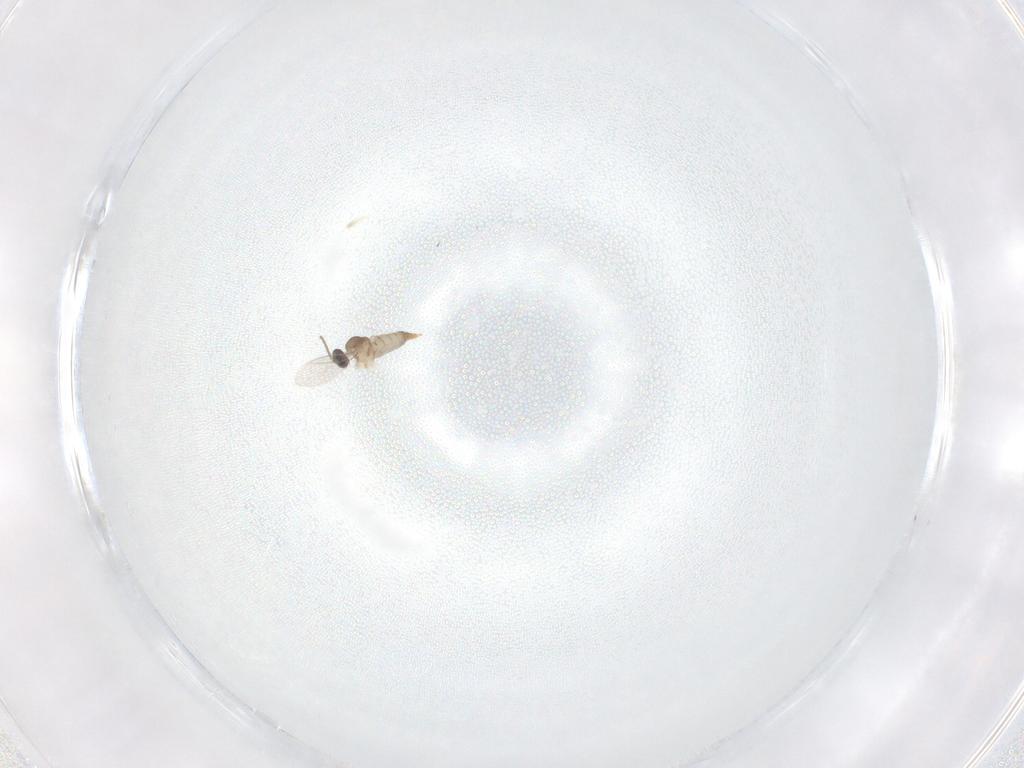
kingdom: Animalia
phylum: Arthropoda
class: Insecta
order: Diptera
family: Cecidomyiidae
